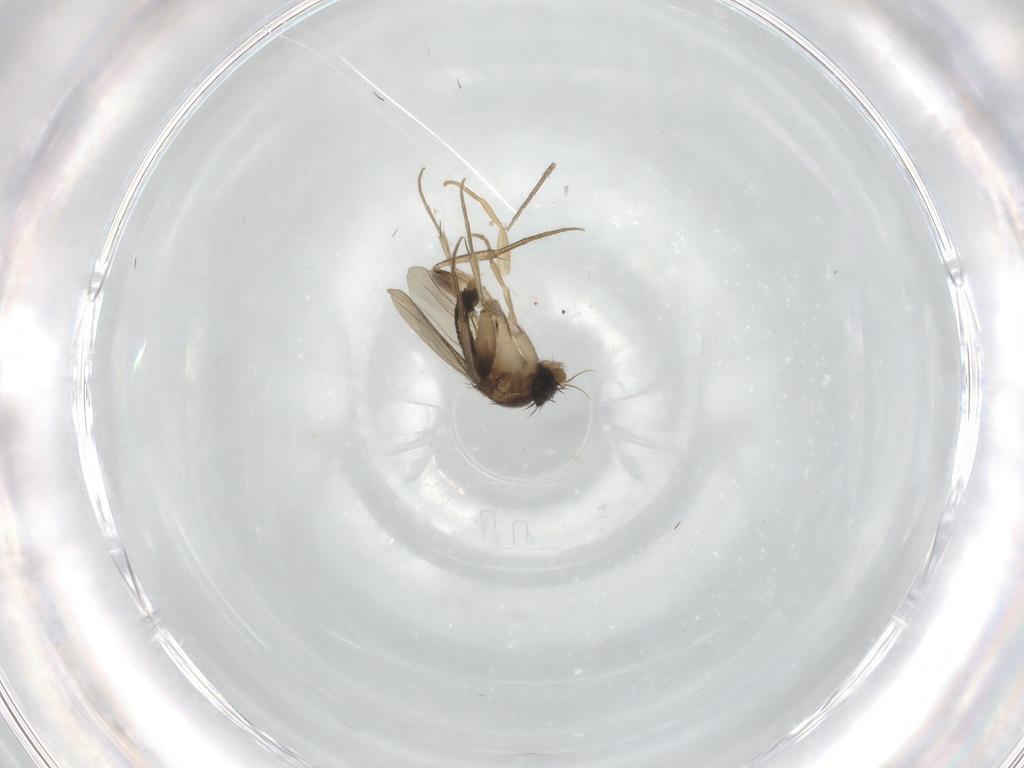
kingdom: Animalia
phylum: Arthropoda
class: Insecta
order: Diptera
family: Phoridae
